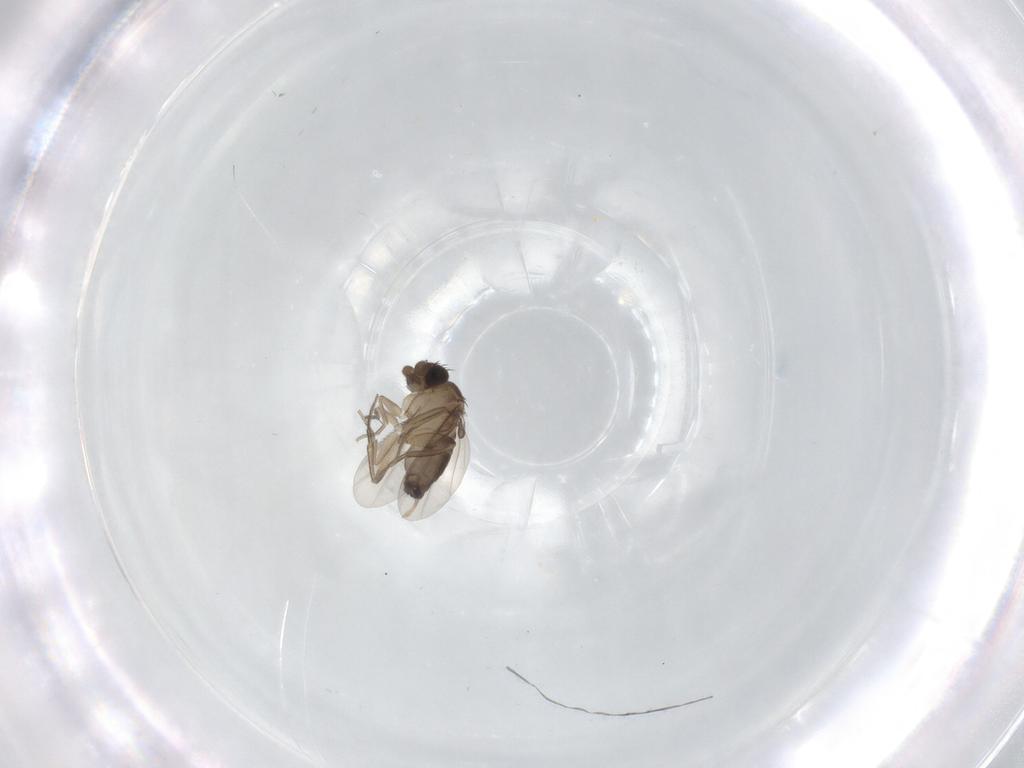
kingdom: Animalia
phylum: Arthropoda
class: Insecta
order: Diptera
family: Phoridae
